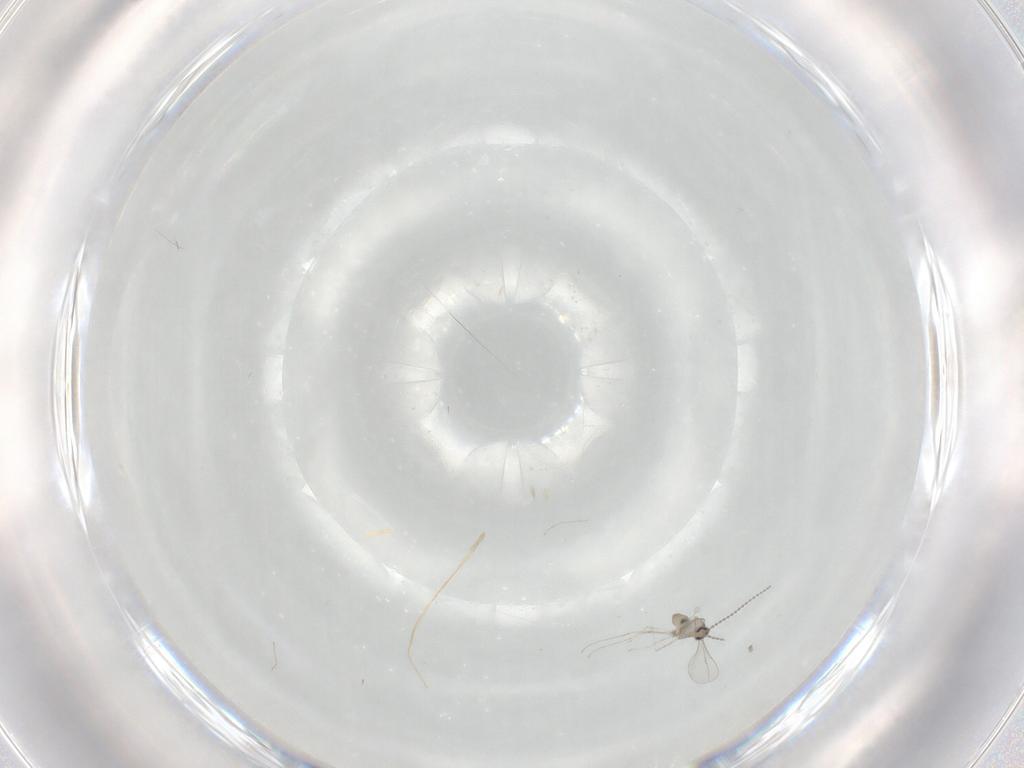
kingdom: Animalia
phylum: Arthropoda
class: Insecta
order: Diptera
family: Cecidomyiidae
